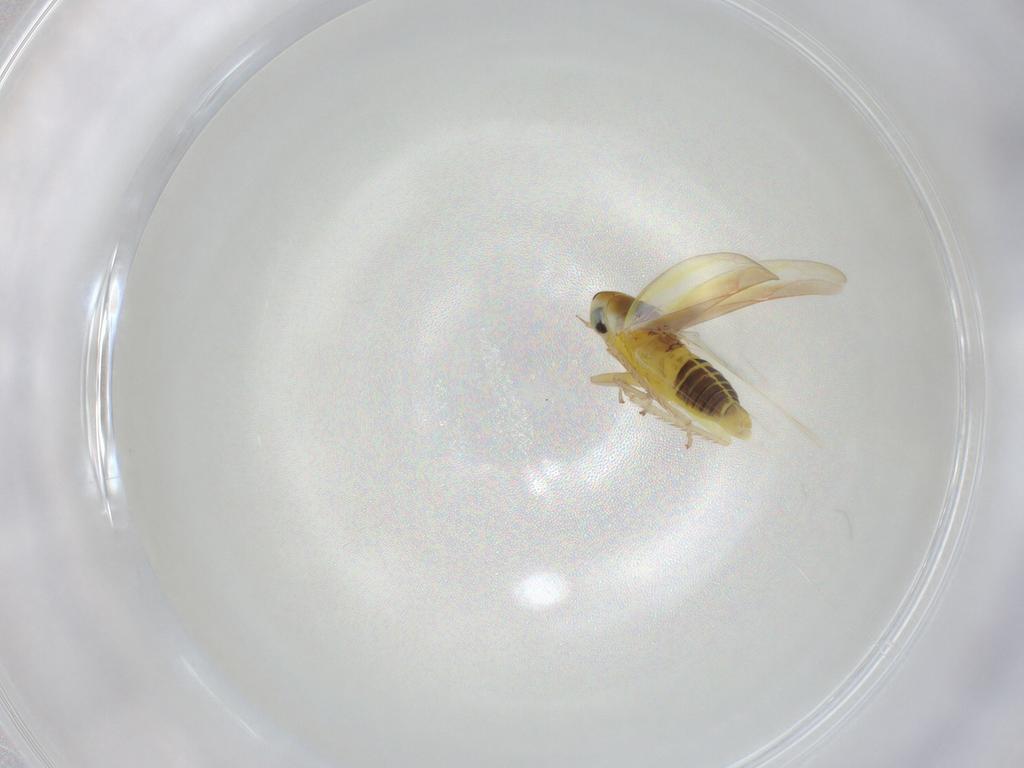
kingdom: Animalia
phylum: Arthropoda
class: Insecta
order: Hemiptera
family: Cicadellidae
